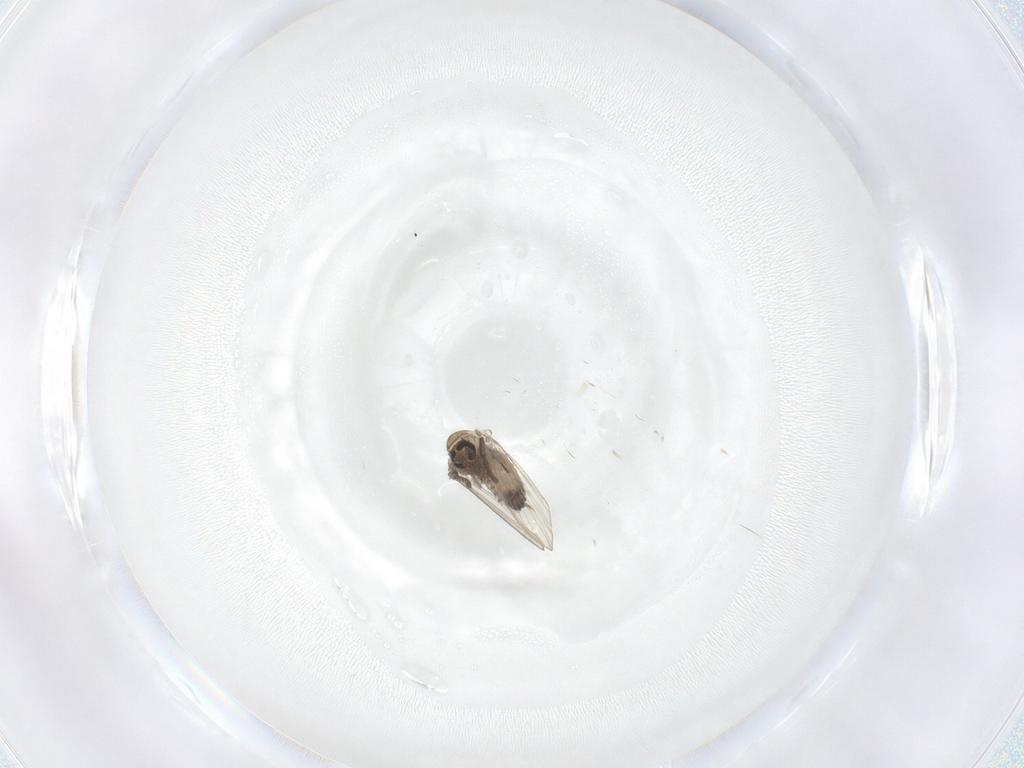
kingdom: Animalia
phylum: Arthropoda
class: Insecta
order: Diptera
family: Psychodidae
